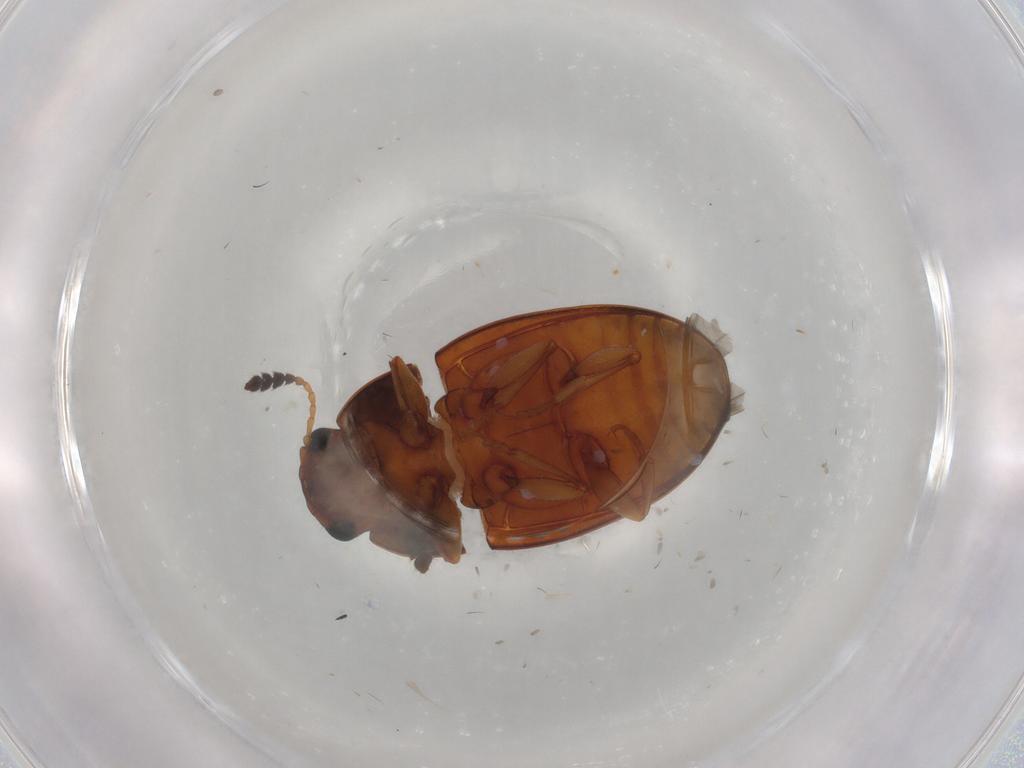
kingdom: Animalia
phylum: Arthropoda
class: Insecta
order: Coleoptera
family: Erotylidae
